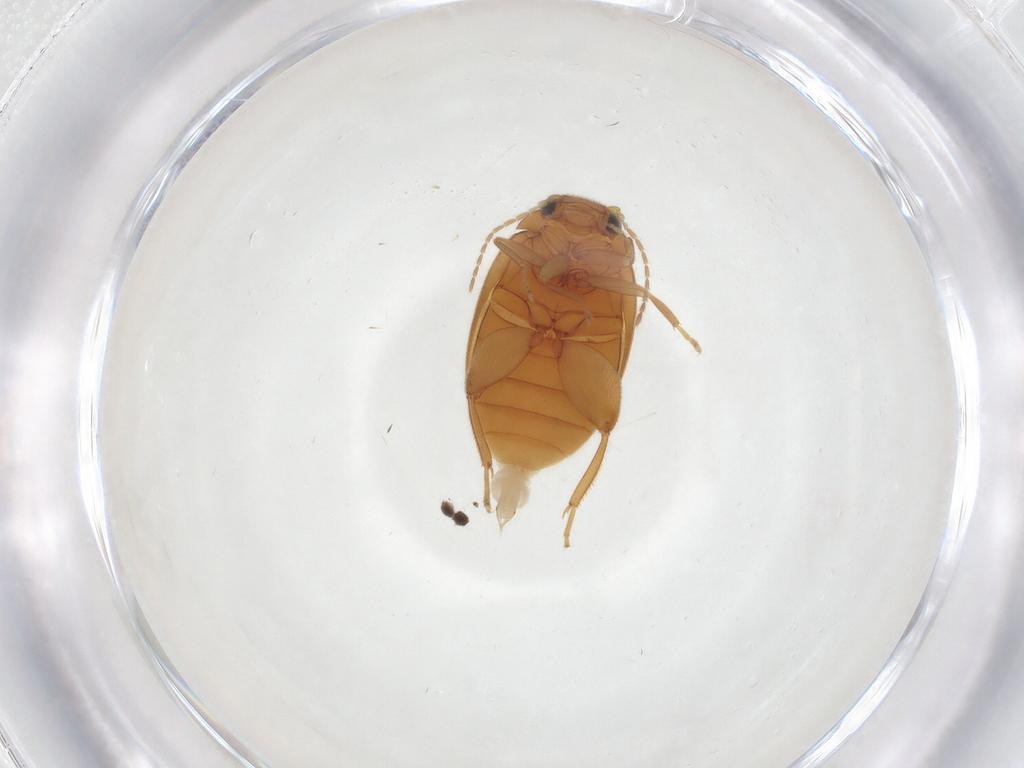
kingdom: Animalia
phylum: Arthropoda
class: Insecta
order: Coleoptera
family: Scirtidae
